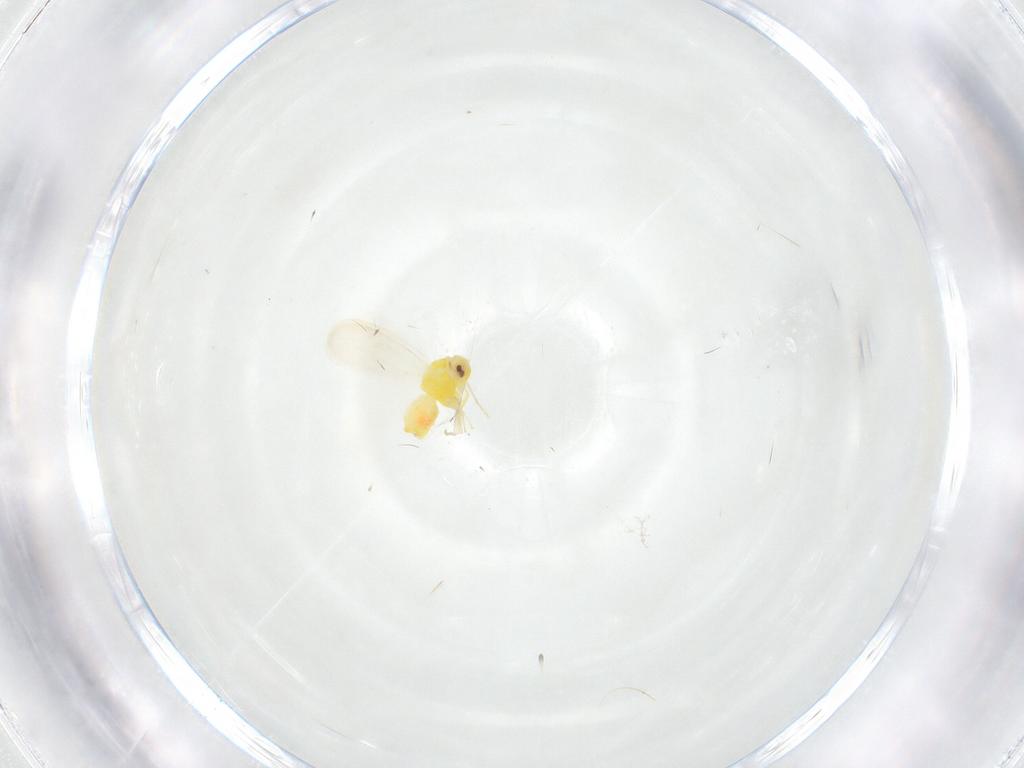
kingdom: Animalia
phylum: Arthropoda
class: Insecta
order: Hemiptera
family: Aleyrodidae
